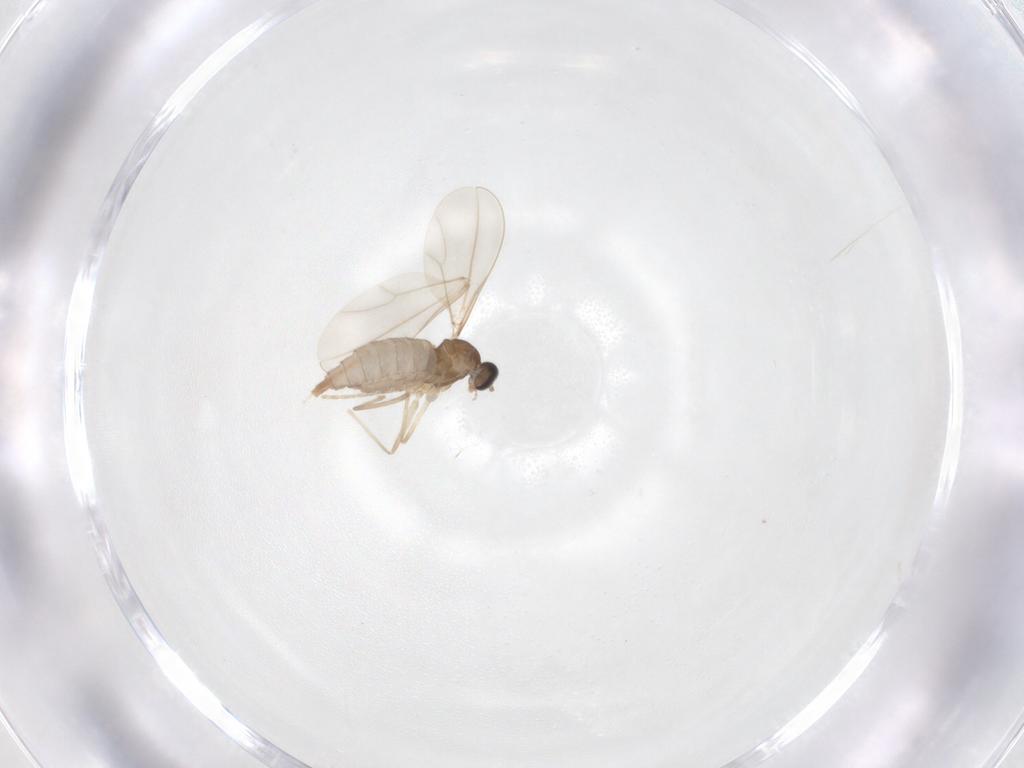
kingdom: Animalia
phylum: Arthropoda
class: Insecta
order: Diptera
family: Cecidomyiidae
